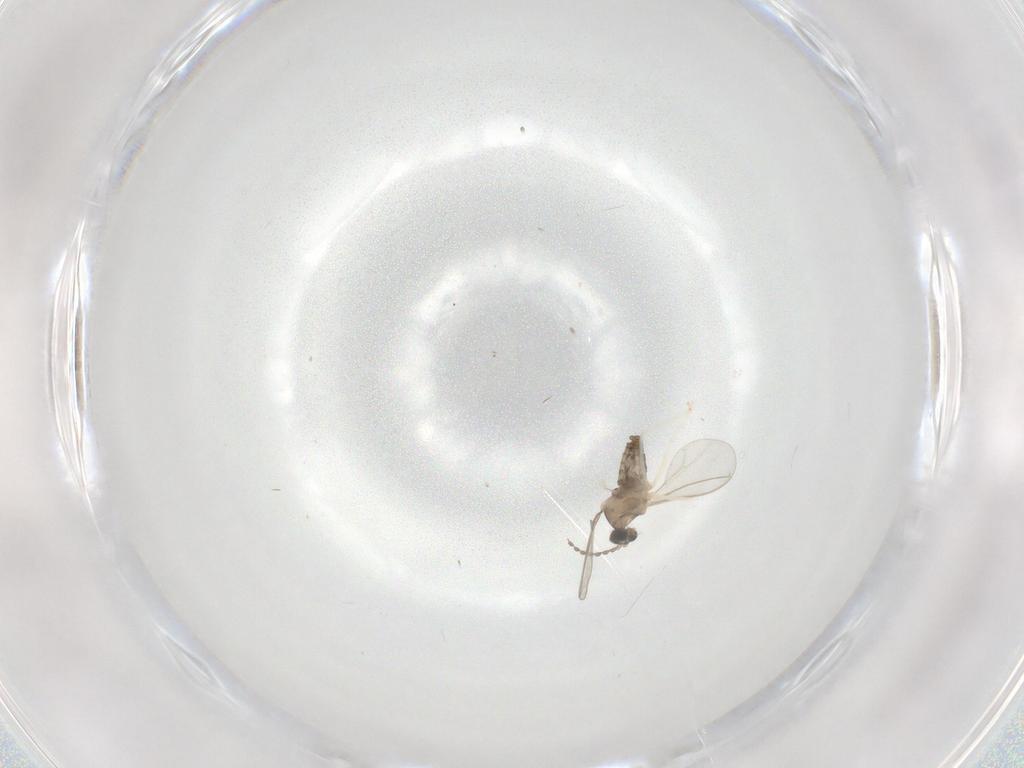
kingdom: Animalia
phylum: Arthropoda
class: Insecta
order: Diptera
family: Cecidomyiidae
